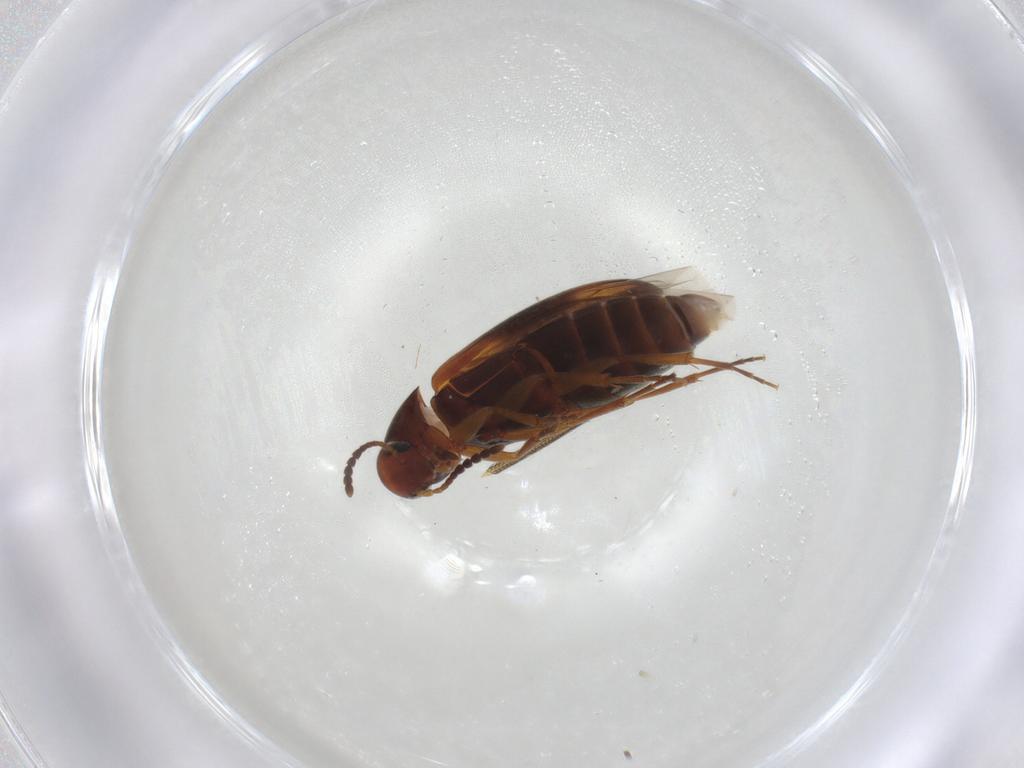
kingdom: Animalia
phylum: Arthropoda
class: Insecta
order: Coleoptera
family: Scraptiidae
